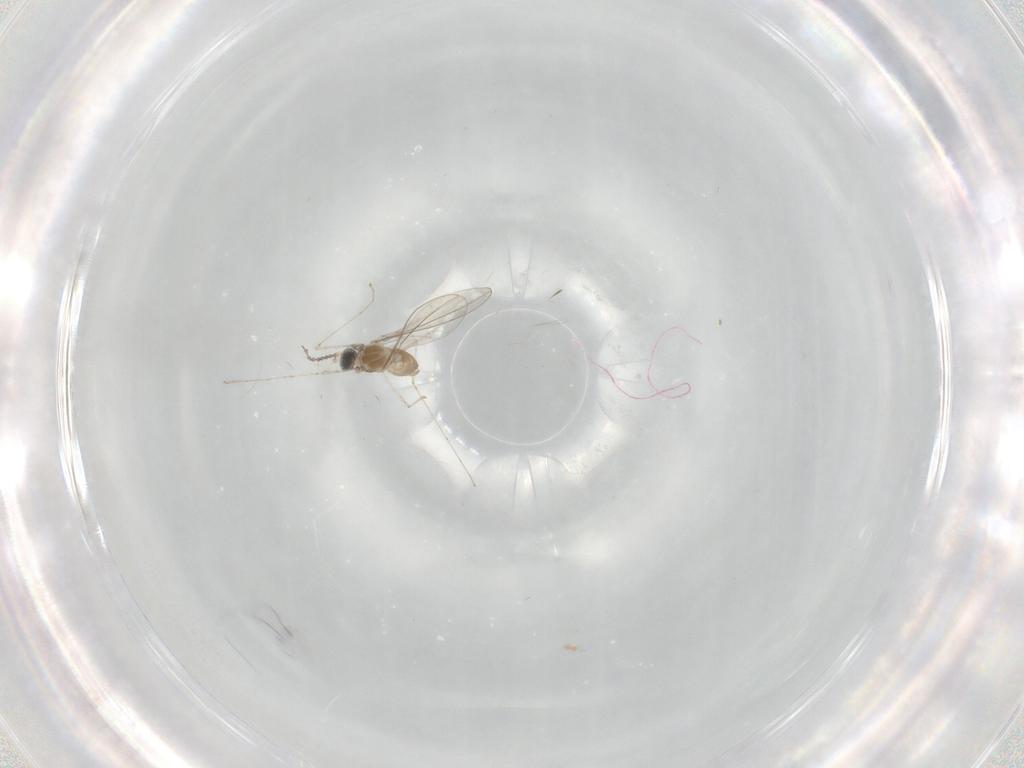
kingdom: Animalia
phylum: Arthropoda
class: Insecta
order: Diptera
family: Cecidomyiidae
